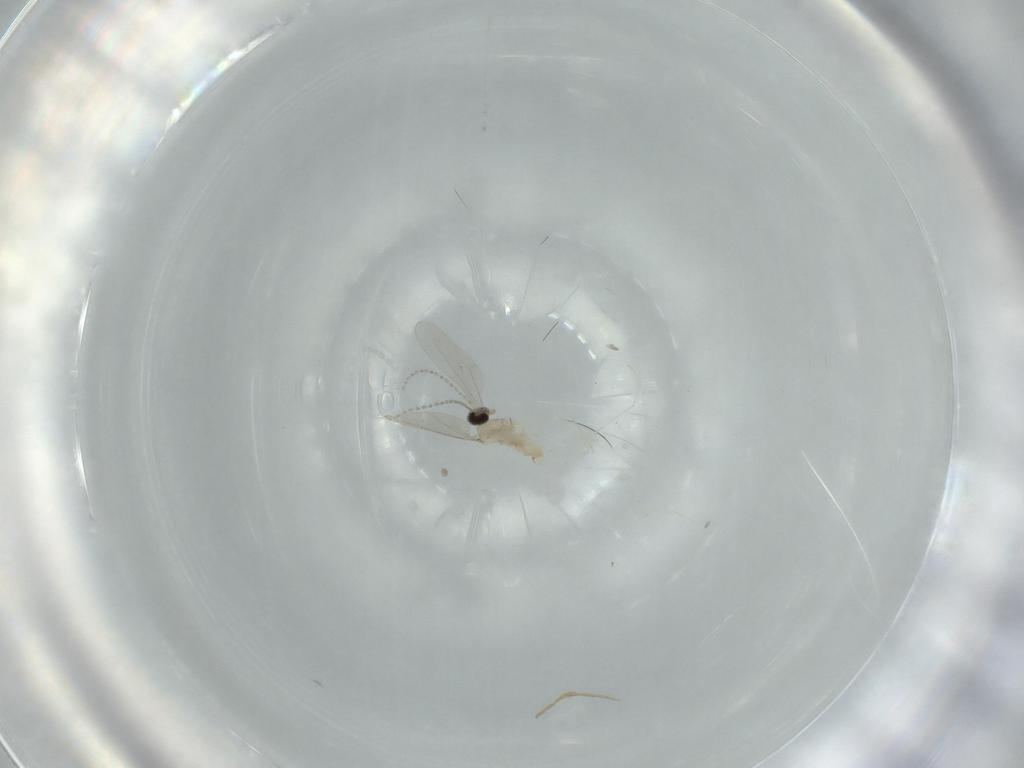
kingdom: Animalia
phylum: Arthropoda
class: Insecta
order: Diptera
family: Cecidomyiidae
